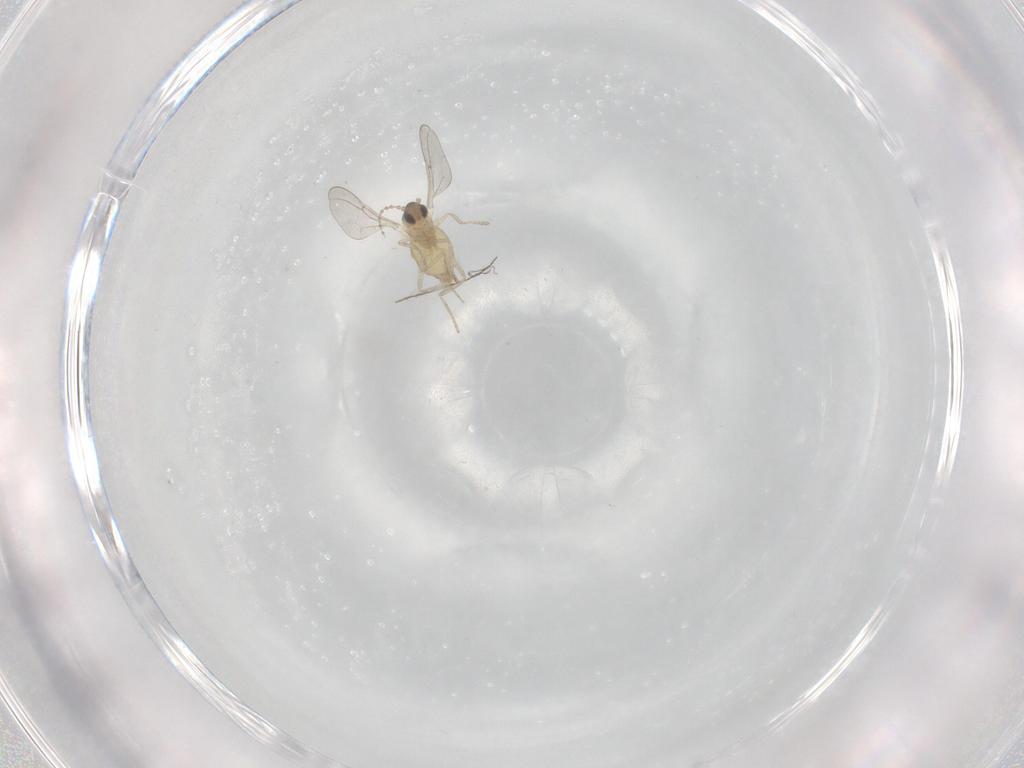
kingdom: Animalia
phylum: Arthropoda
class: Insecta
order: Diptera
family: Cecidomyiidae
